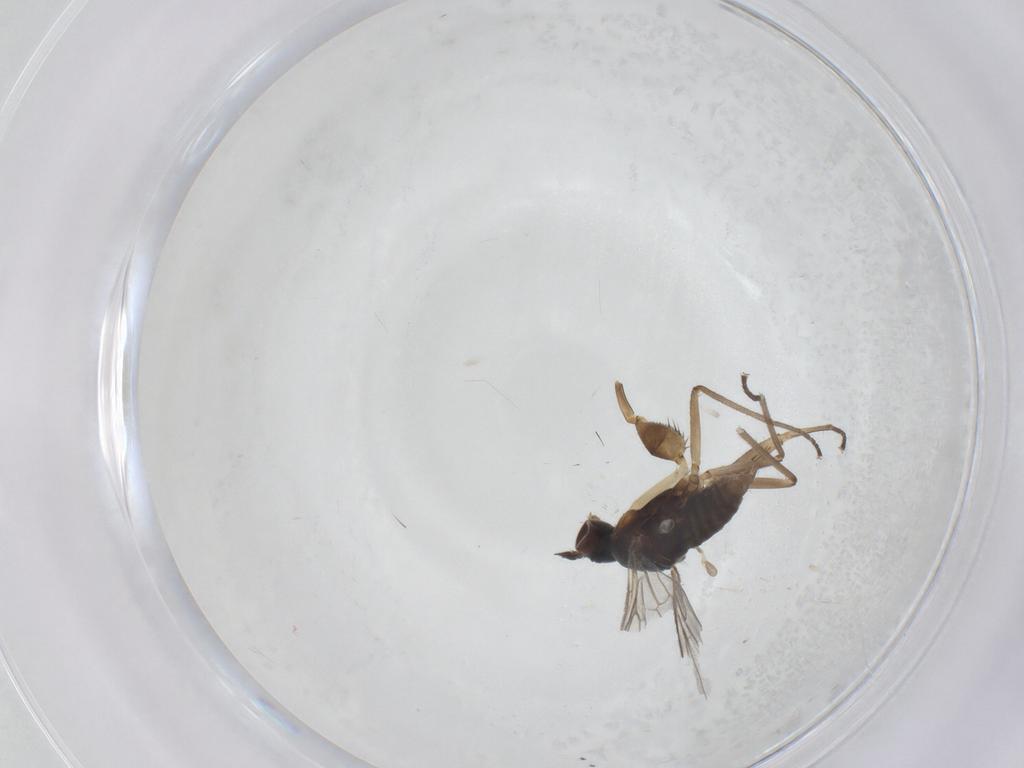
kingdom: Animalia
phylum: Arthropoda
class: Insecta
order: Diptera
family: Empididae
